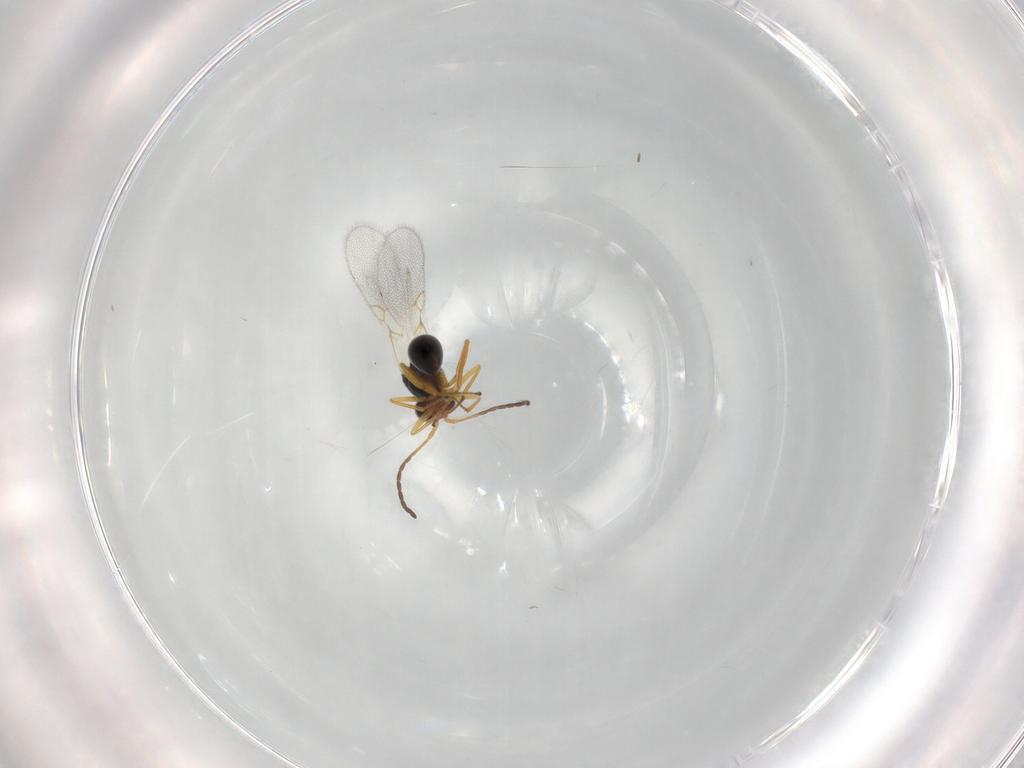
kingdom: Animalia
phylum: Arthropoda
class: Insecta
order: Hymenoptera
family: Figitidae
